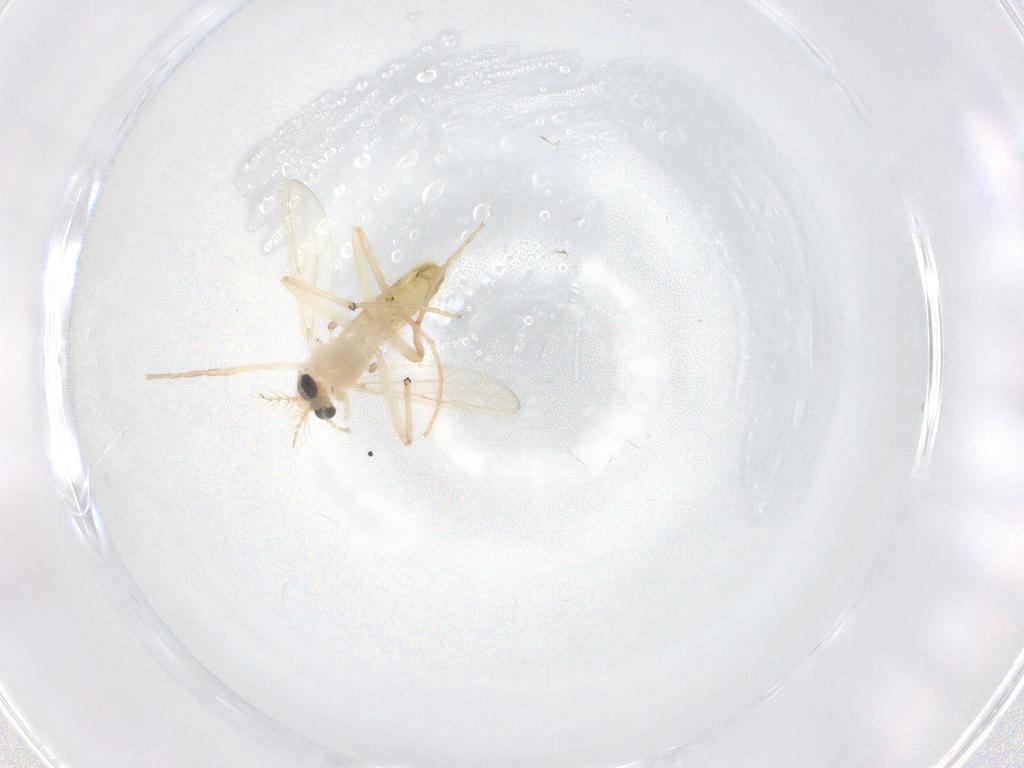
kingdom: Animalia
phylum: Arthropoda
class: Insecta
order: Diptera
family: Chironomidae
